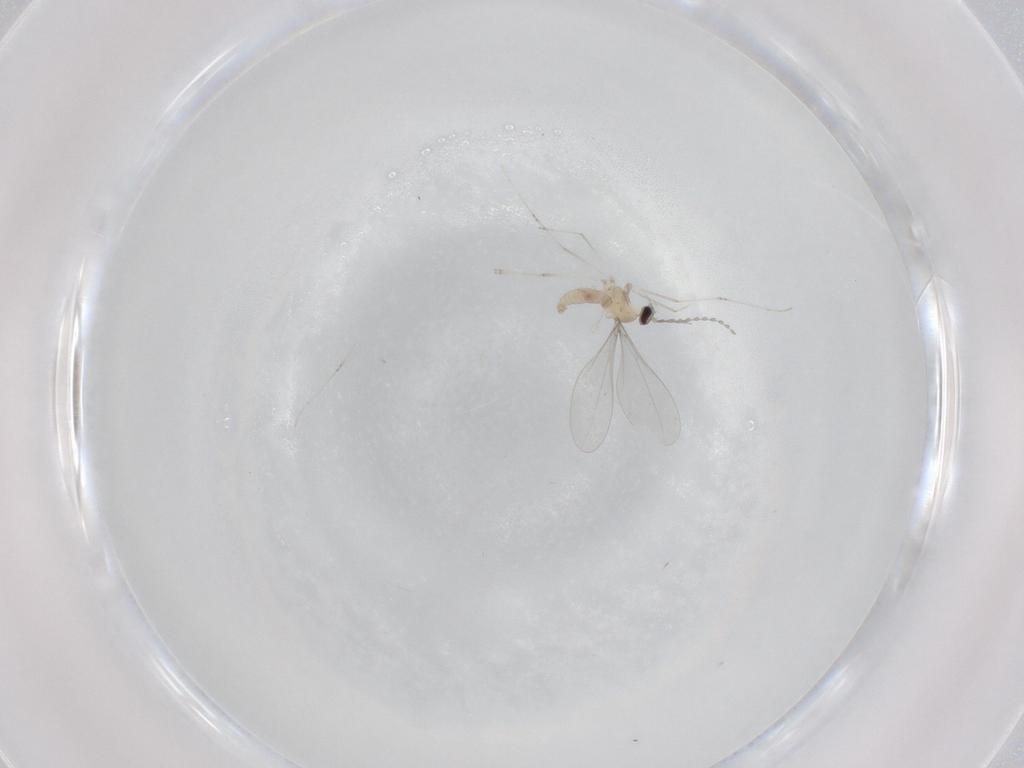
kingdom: Animalia
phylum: Arthropoda
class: Insecta
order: Diptera
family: Cecidomyiidae
